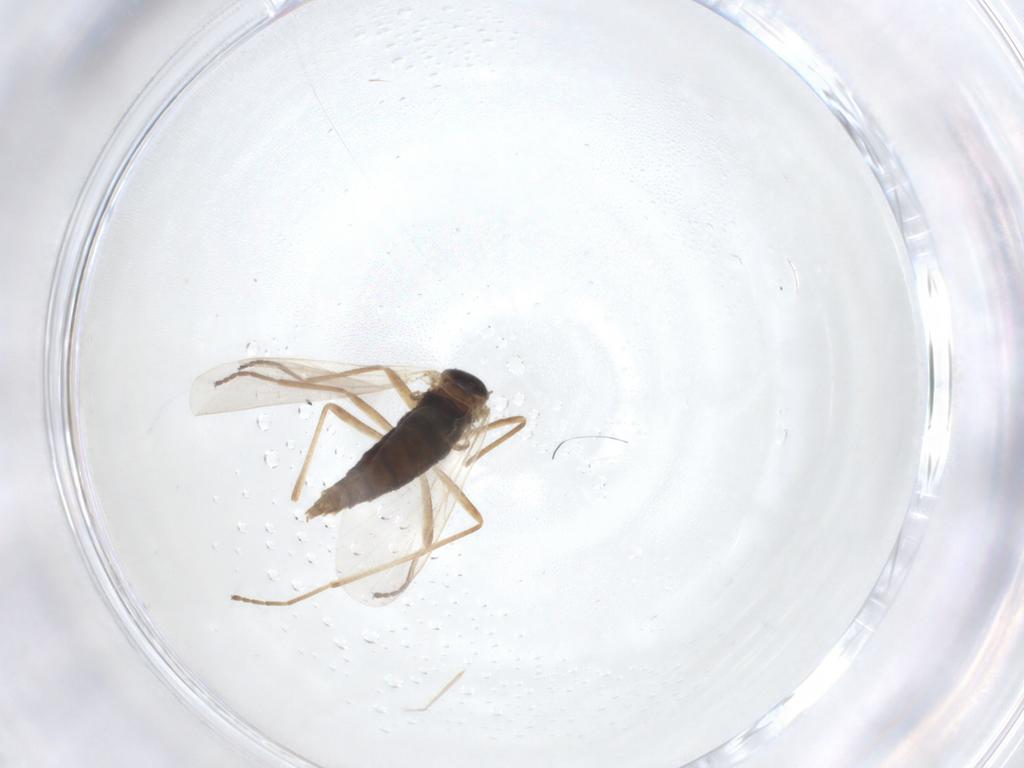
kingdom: Animalia
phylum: Arthropoda
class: Insecta
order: Diptera
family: Cecidomyiidae
